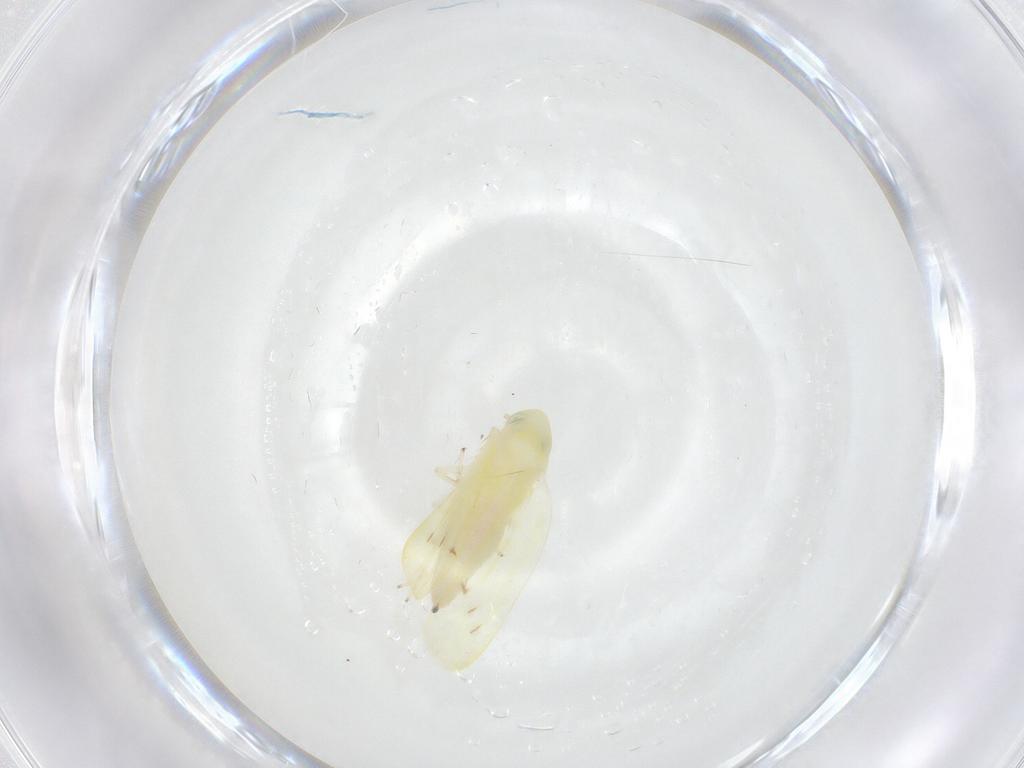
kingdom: Animalia
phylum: Arthropoda
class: Insecta
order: Hemiptera
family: Cicadellidae
